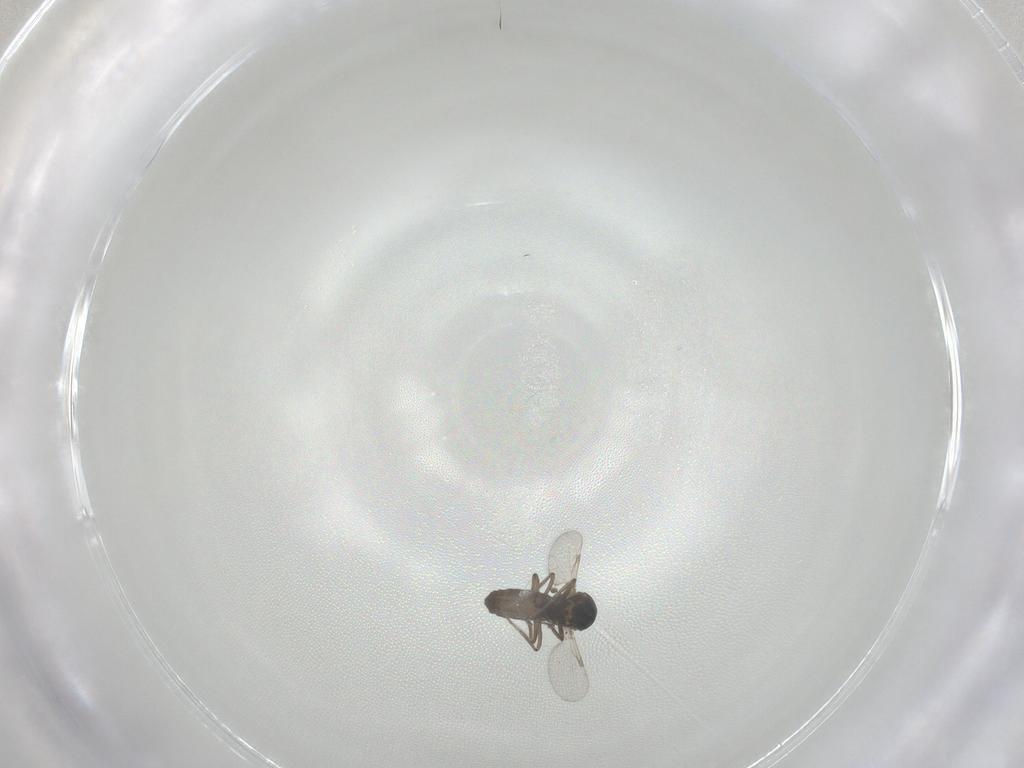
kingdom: Animalia
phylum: Arthropoda
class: Insecta
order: Diptera
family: Ceratopogonidae
